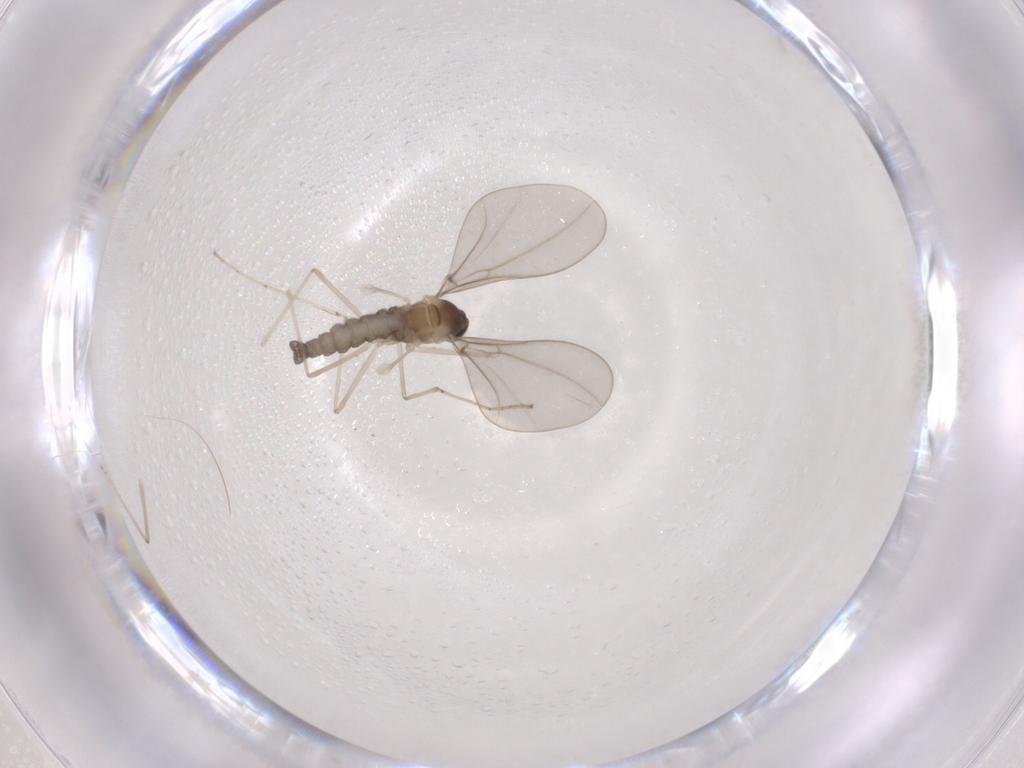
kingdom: Animalia
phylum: Arthropoda
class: Insecta
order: Diptera
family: Cecidomyiidae
